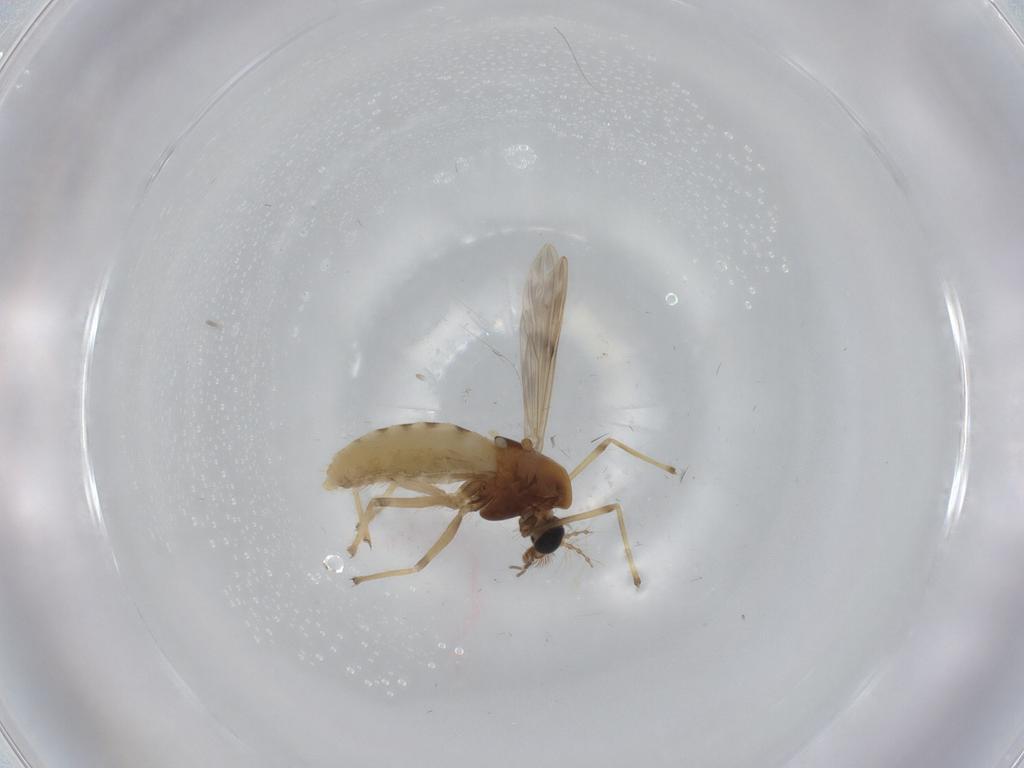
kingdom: Animalia
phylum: Arthropoda
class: Insecta
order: Diptera
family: Chironomidae
